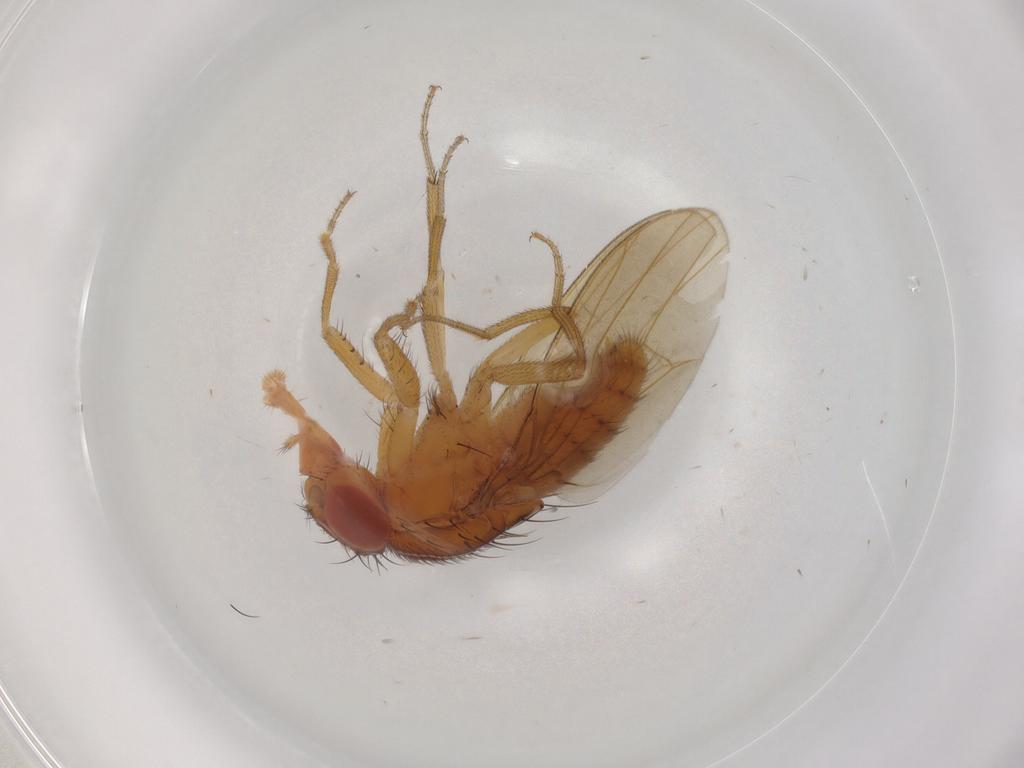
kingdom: Animalia
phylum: Arthropoda
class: Insecta
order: Diptera
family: Drosophilidae
